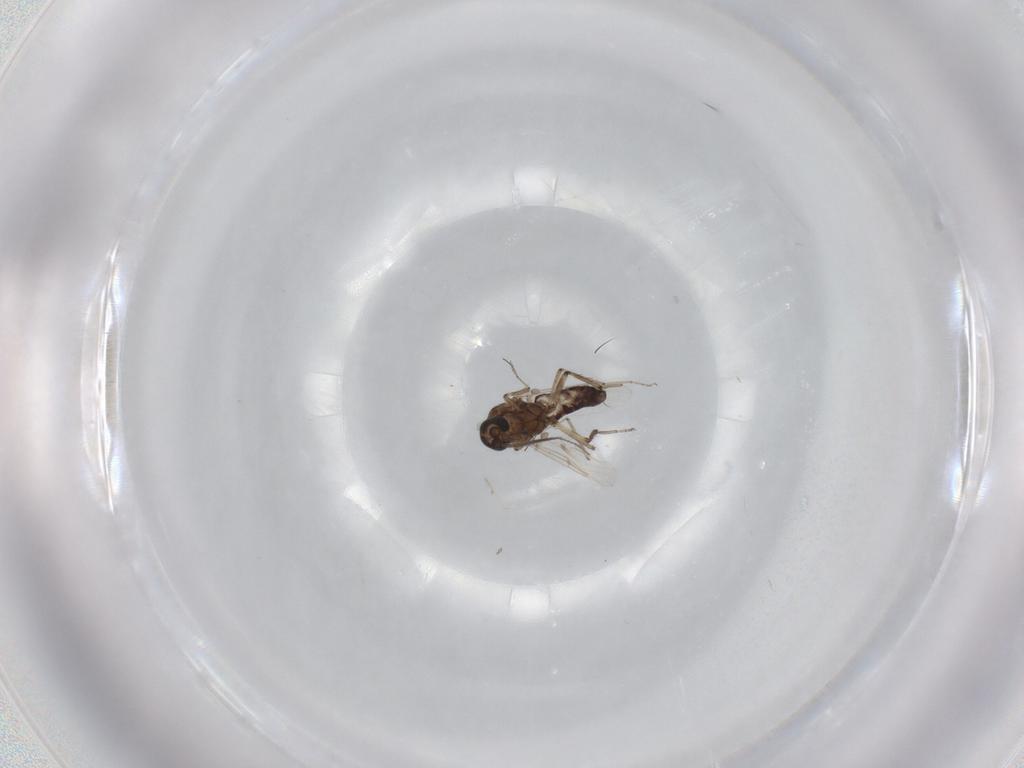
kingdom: Animalia
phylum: Arthropoda
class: Insecta
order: Diptera
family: Ceratopogonidae
